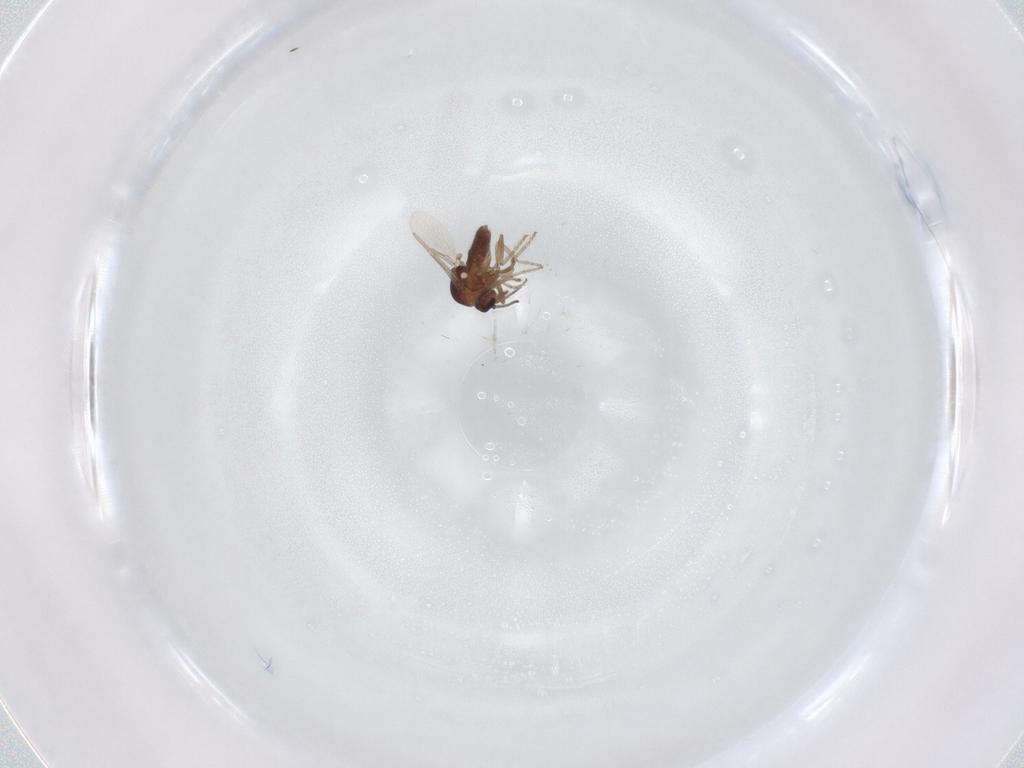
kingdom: Animalia
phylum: Arthropoda
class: Insecta
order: Diptera
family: Ceratopogonidae
